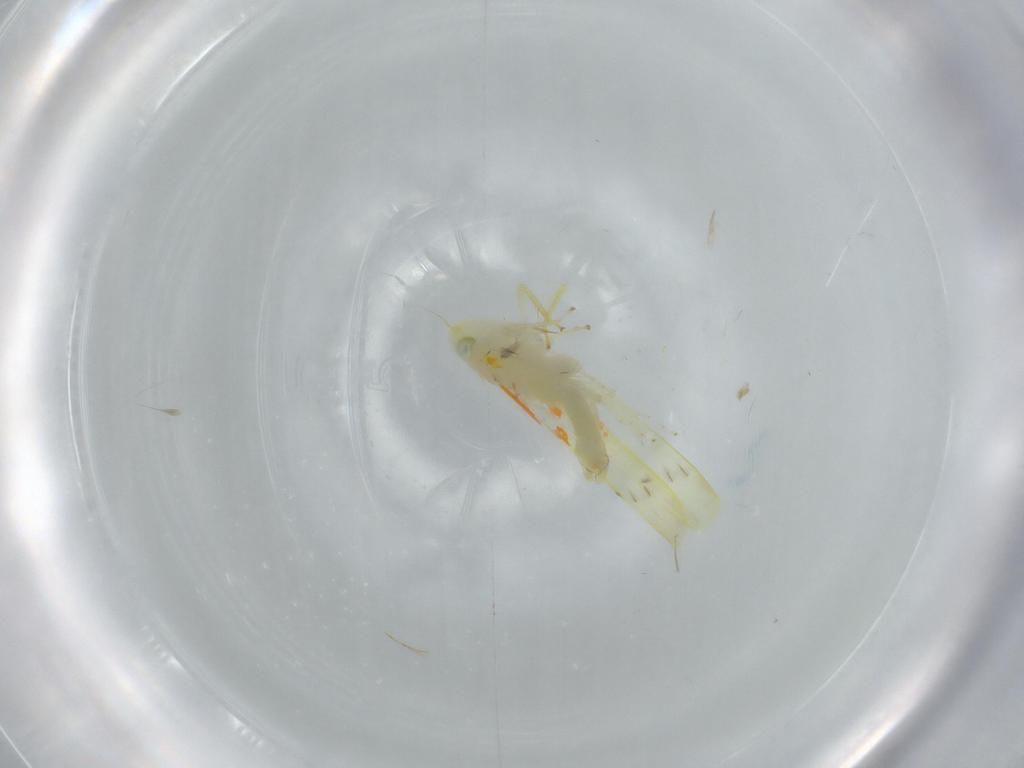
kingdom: Animalia
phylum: Arthropoda
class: Insecta
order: Hemiptera
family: Cicadellidae
